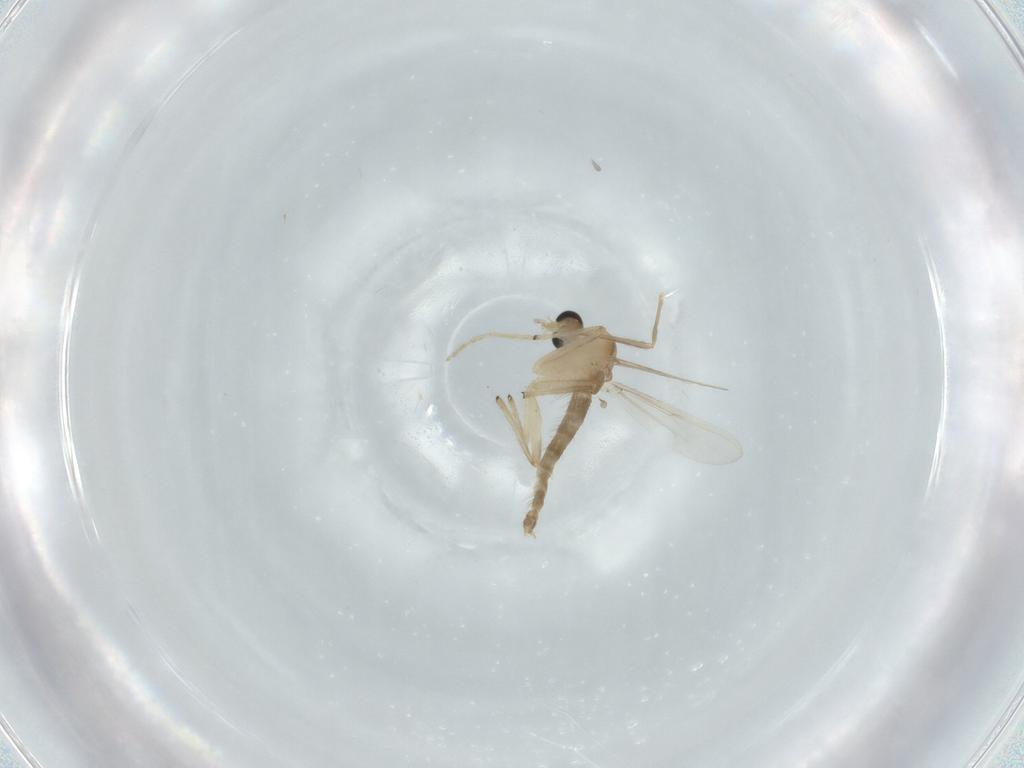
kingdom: Animalia
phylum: Arthropoda
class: Insecta
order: Diptera
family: Chironomidae
